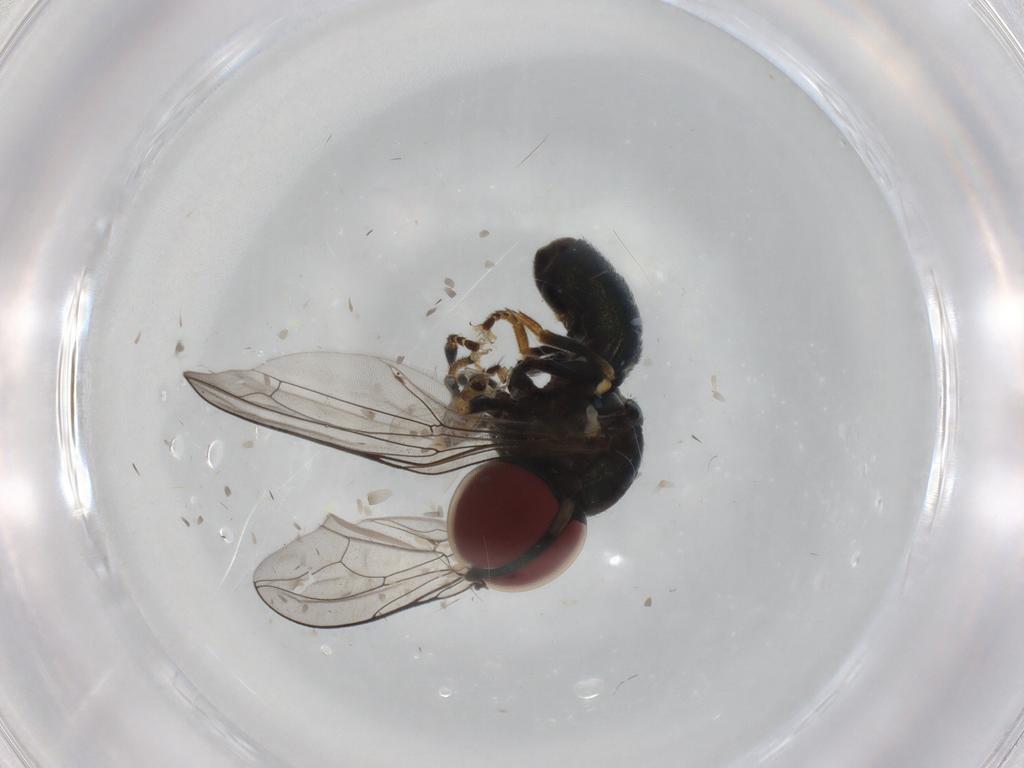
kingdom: Animalia
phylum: Arthropoda
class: Insecta
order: Diptera
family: Pipunculidae
